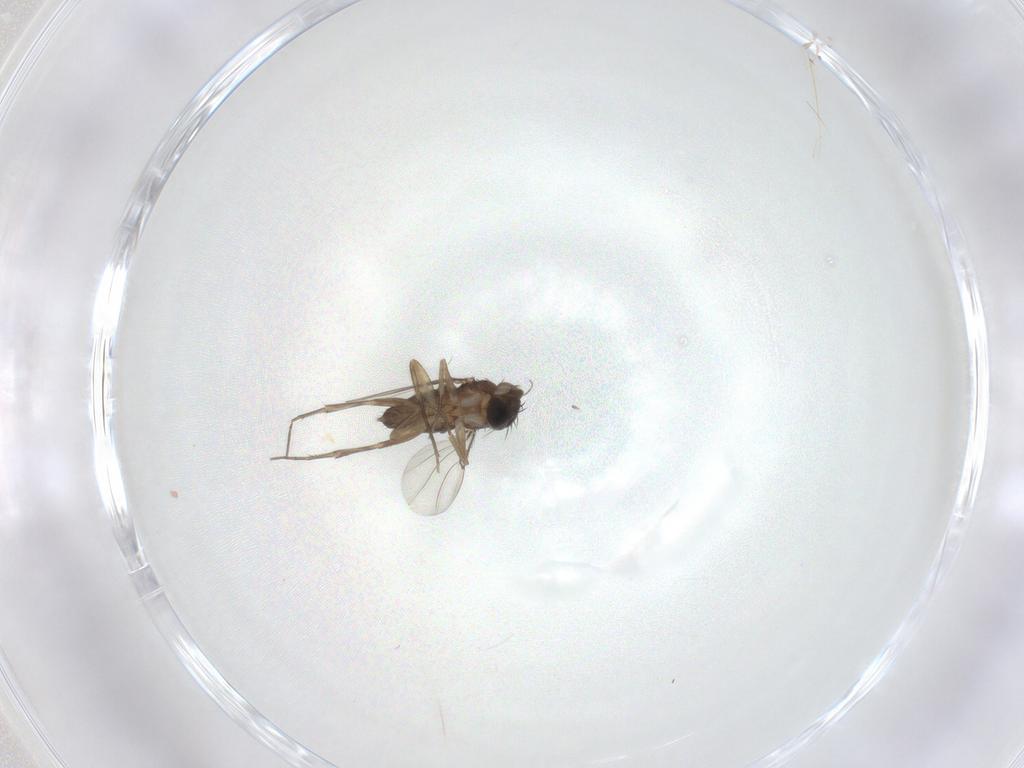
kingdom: Animalia
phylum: Arthropoda
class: Insecta
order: Diptera
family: Phoridae
